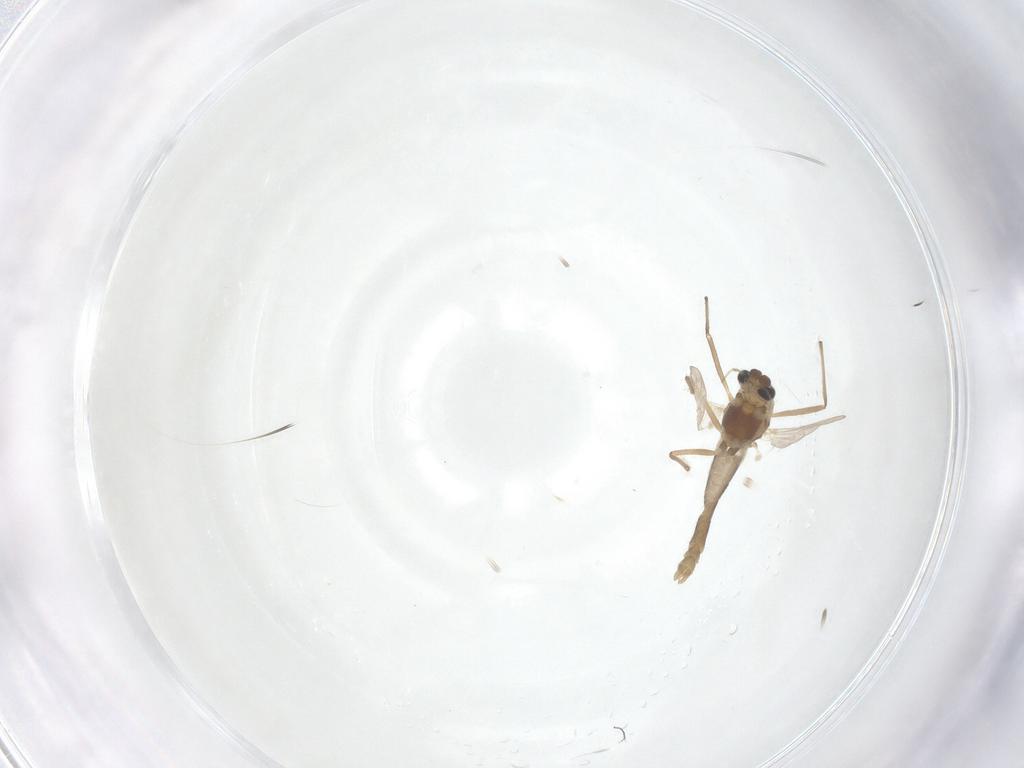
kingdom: Animalia
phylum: Arthropoda
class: Insecta
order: Diptera
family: Chironomidae
